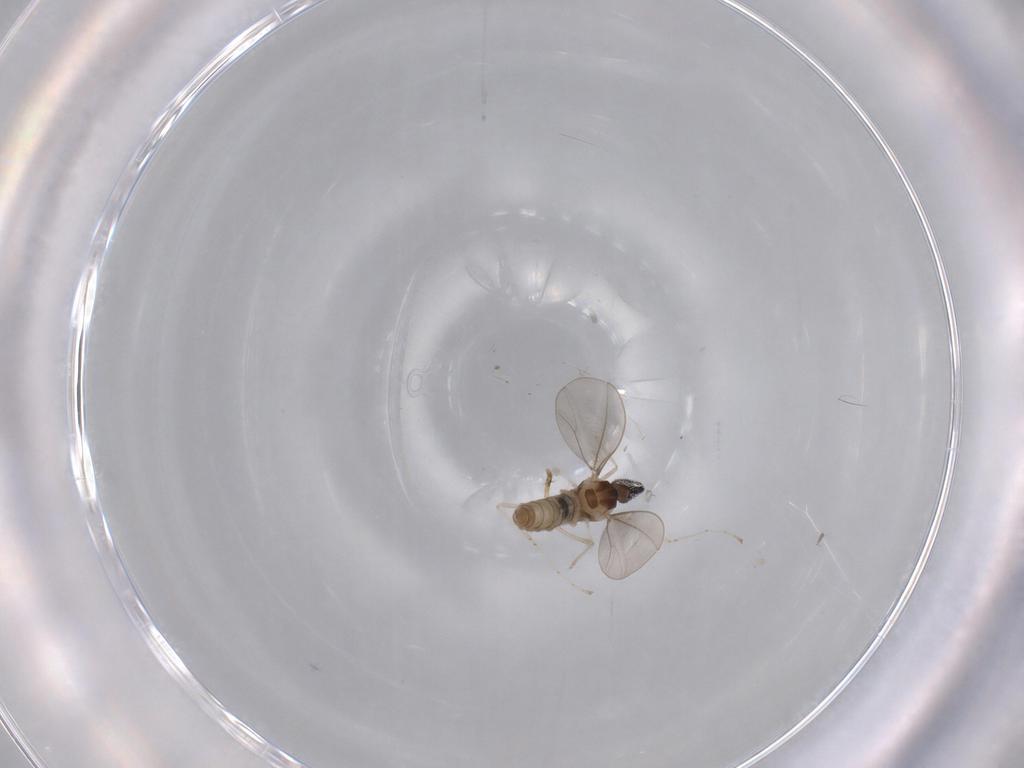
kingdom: Animalia
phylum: Arthropoda
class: Insecta
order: Diptera
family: Cecidomyiidae
